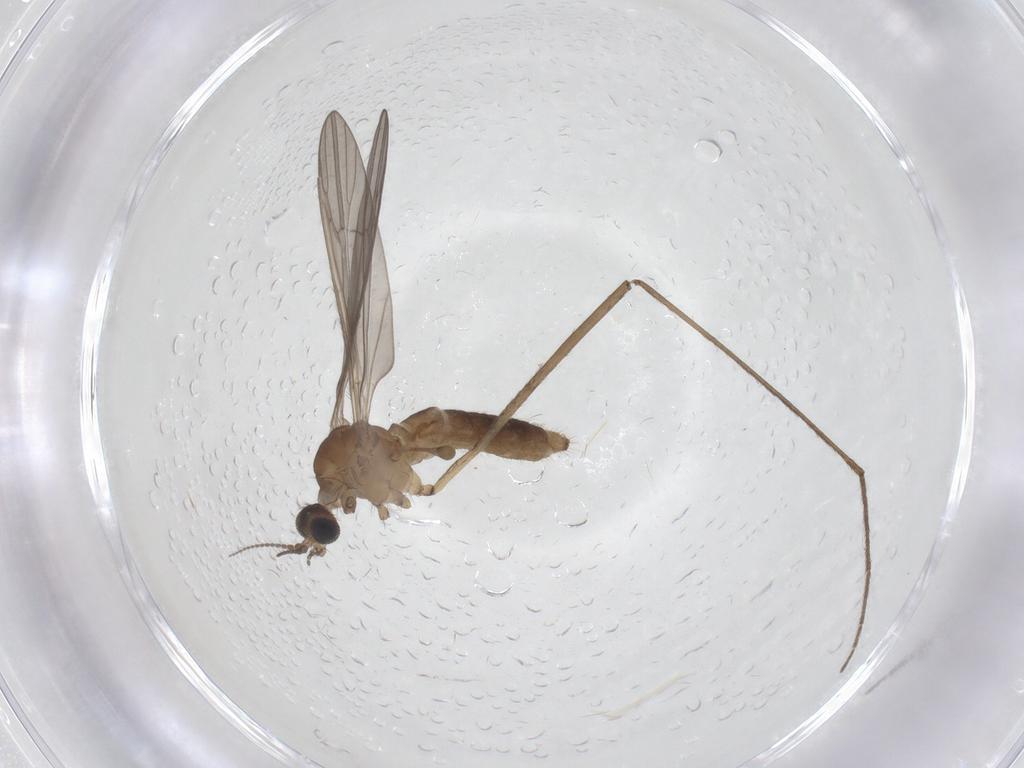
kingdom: Animalia
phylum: Arthropoda
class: Insecta
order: Diptera
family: Limoniidae
